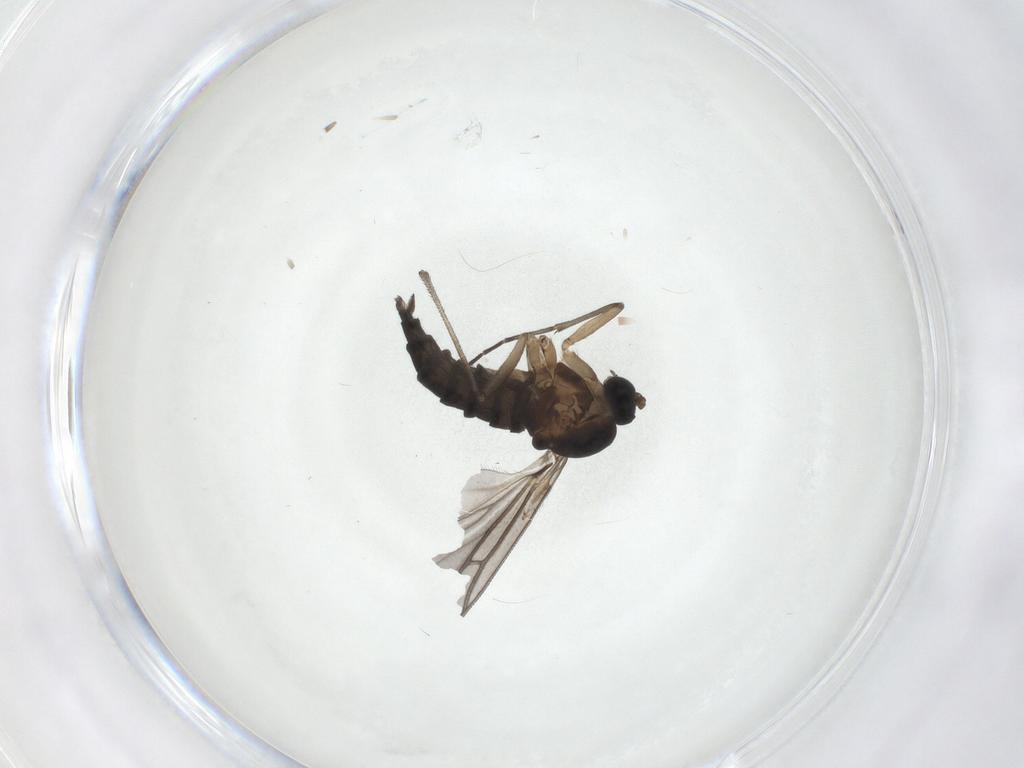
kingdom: Animalia
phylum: Arthropoda
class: Insecta
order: Diptera
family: Sciaridae
